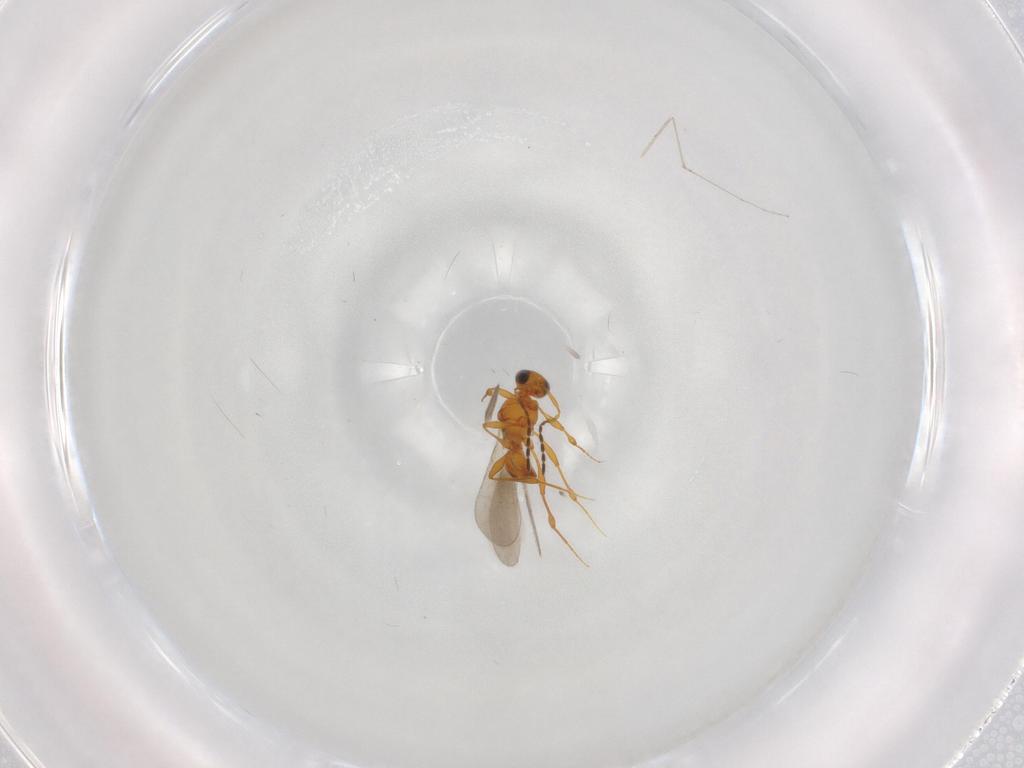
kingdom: Animalia
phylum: Arthropoda
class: Insecta
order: Hymenoptera
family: Platygastridae
